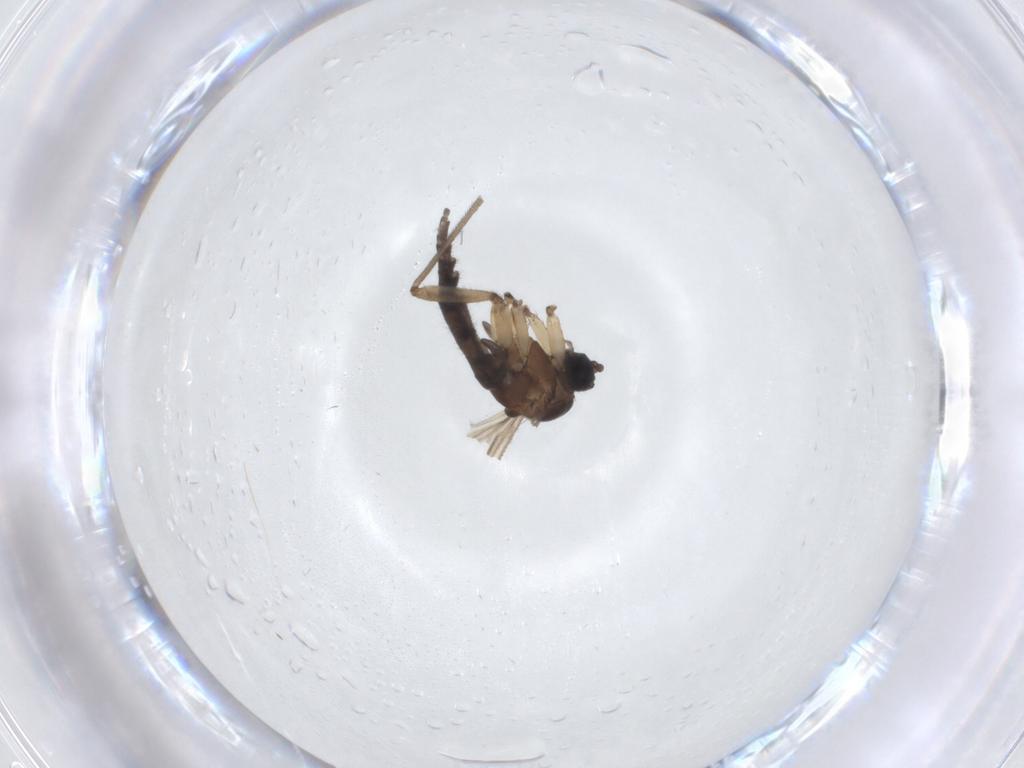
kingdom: Animalia
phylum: Arthropoda
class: Insecta
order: Diptera
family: Sciaridae
